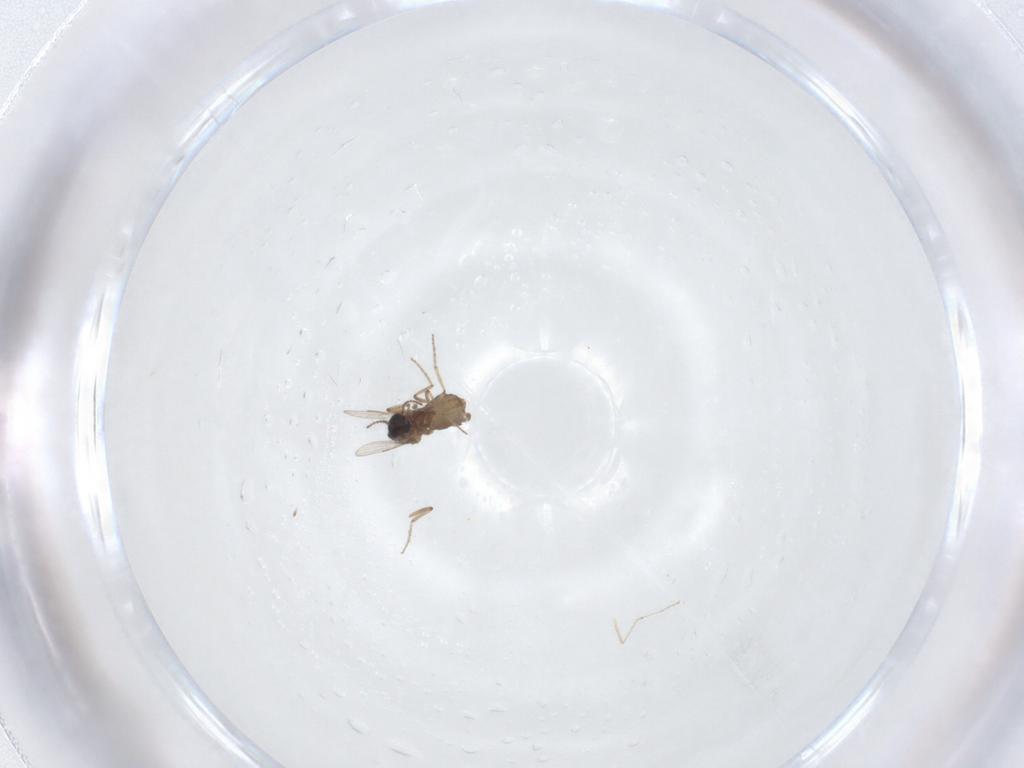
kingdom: Animalia
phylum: Arthropoda
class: Insecta
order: Diptera
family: Ceratopogonidae
